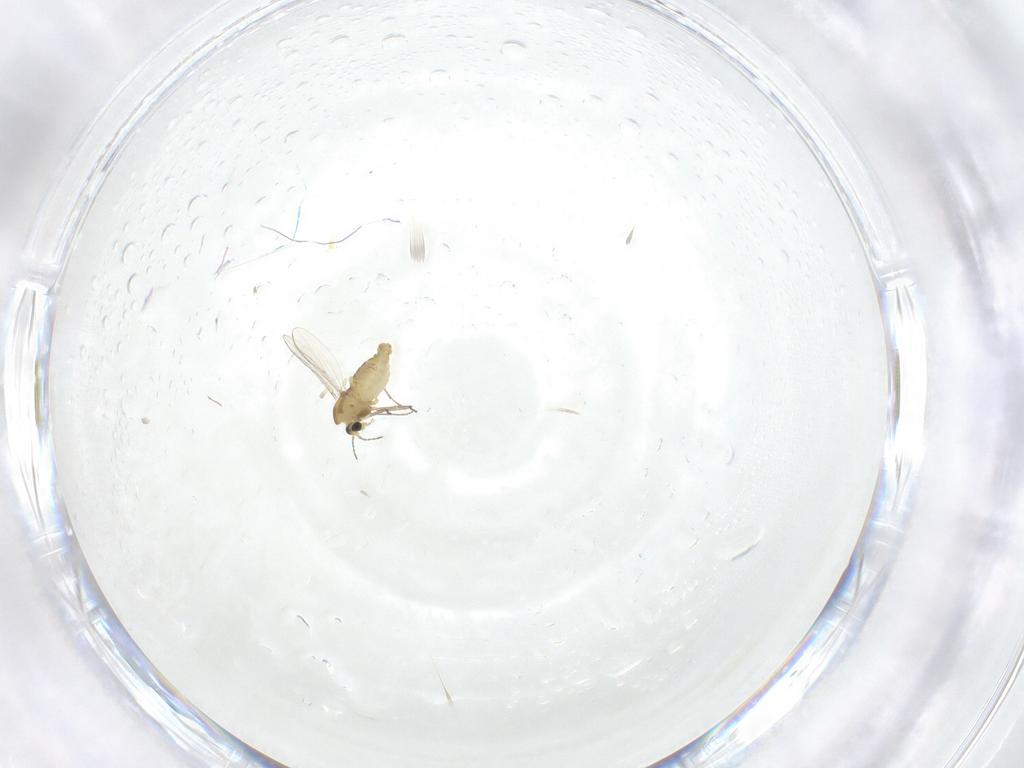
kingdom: Animalia
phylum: Arthropoda
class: Insecta
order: Diptera
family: Chironomidae
